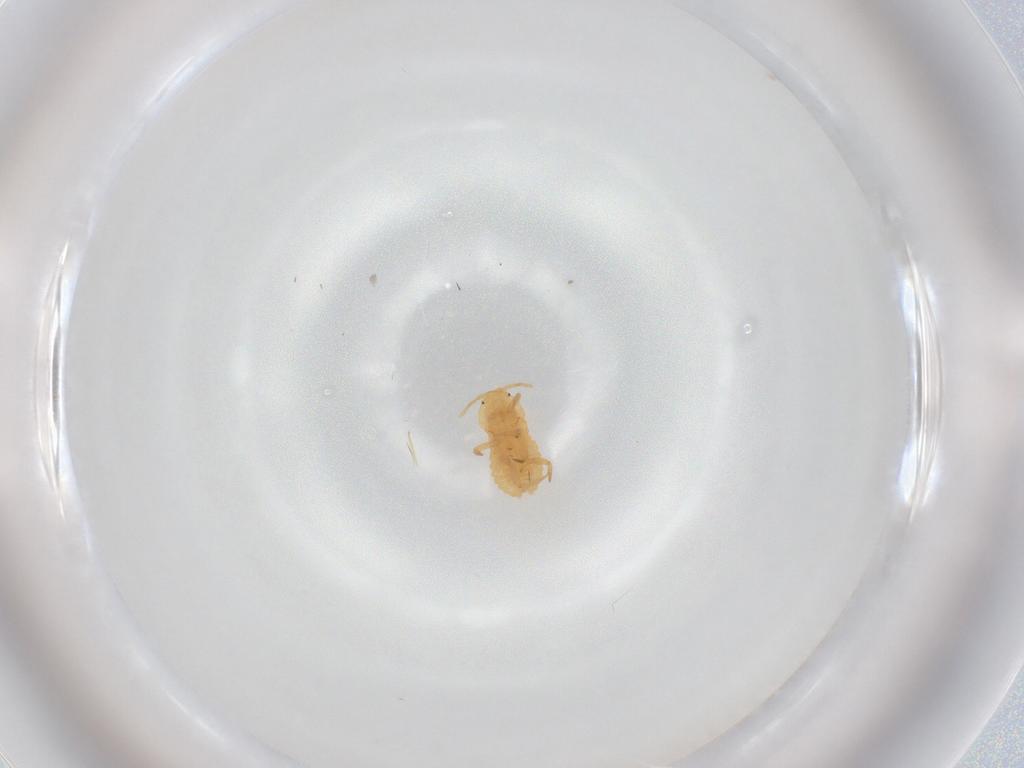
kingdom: Animalia
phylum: Arthropoda
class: Insecta
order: Hemiptera
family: Pseudococcidae
